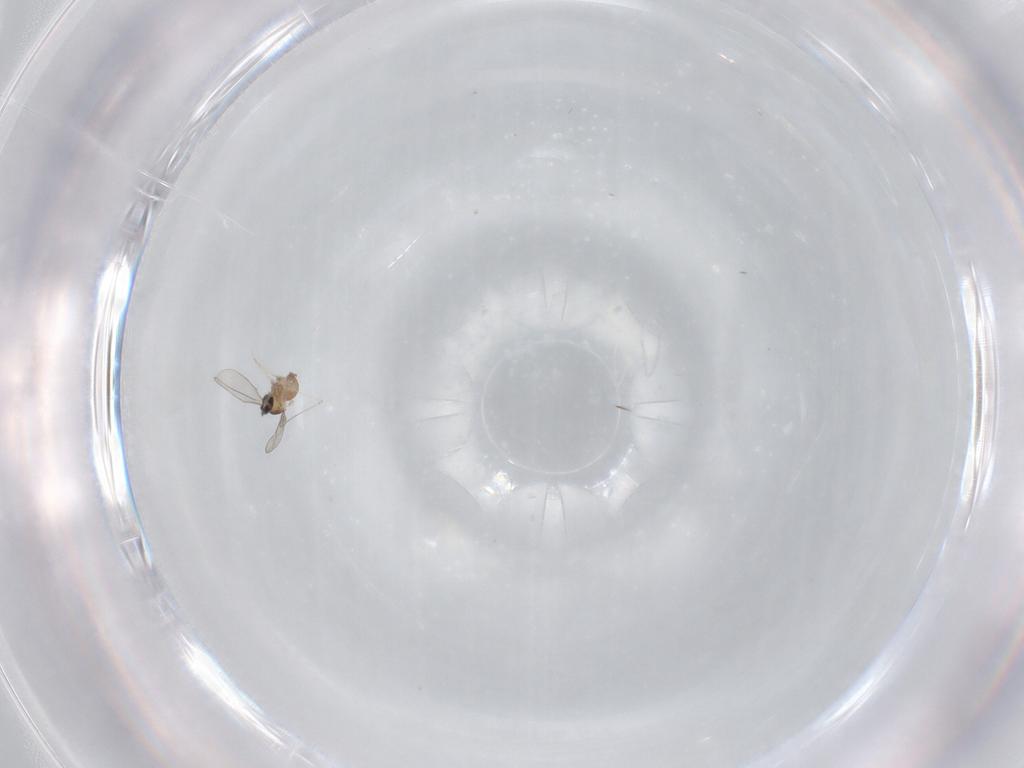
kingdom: Animalia
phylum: Arthropoda
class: Insecta
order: Diptera
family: Cecidomyiidae
